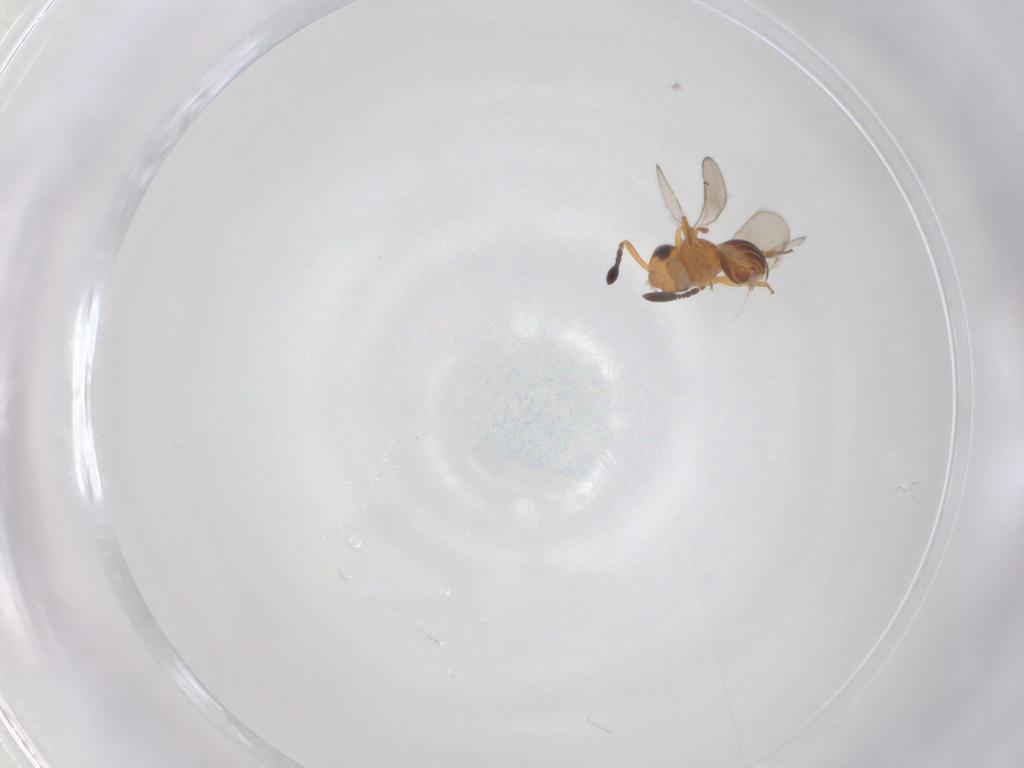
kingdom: Animalia
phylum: Arthropoda
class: Insecta
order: Hymenoptera
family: Scelionidae
